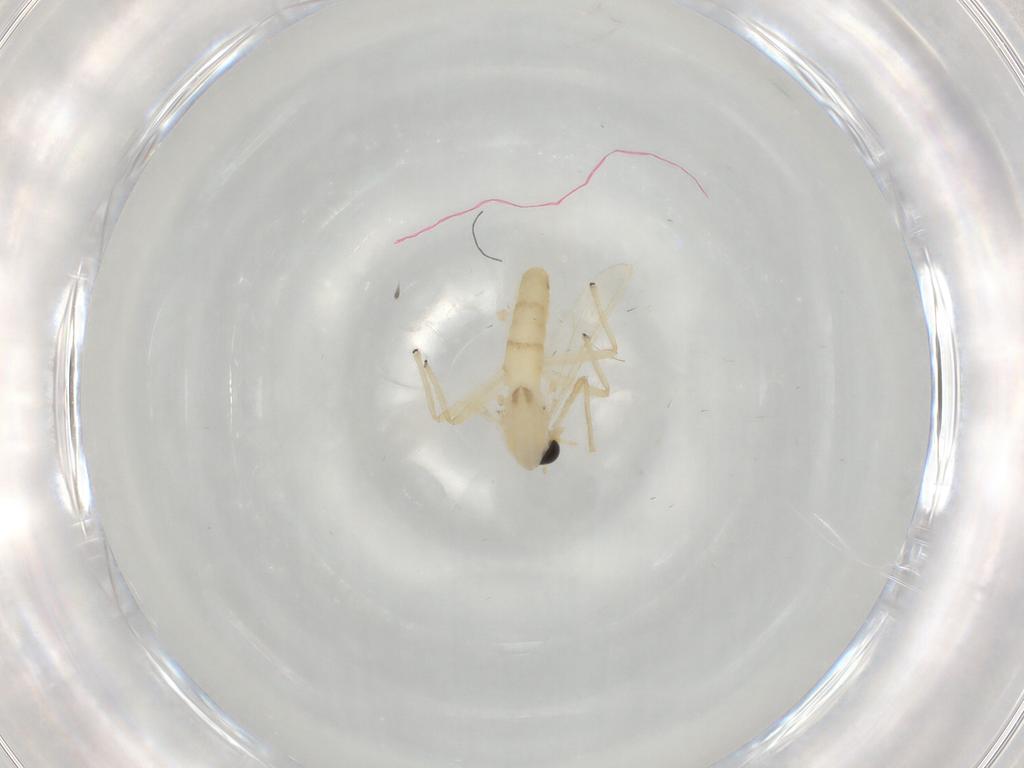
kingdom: Animalia
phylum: Arthropoda
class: Insecta
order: Diptera
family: Chironomidae
